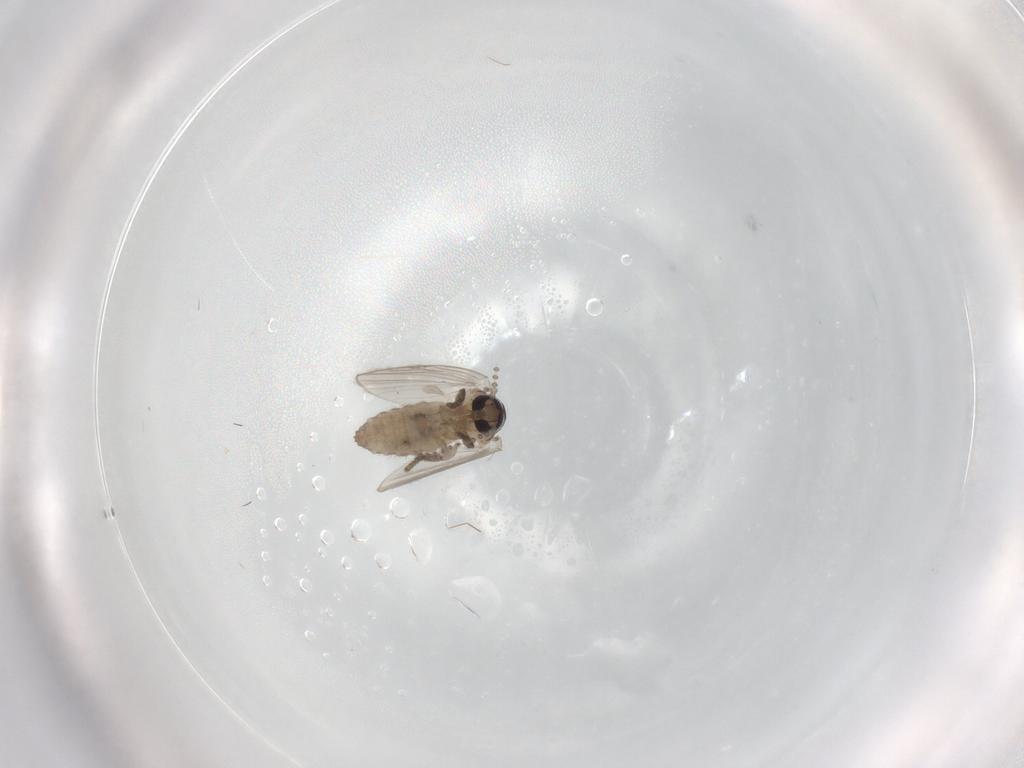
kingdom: Animalia
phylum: Arthropoda
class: Insecta
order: Diptera
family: Psychodidae
